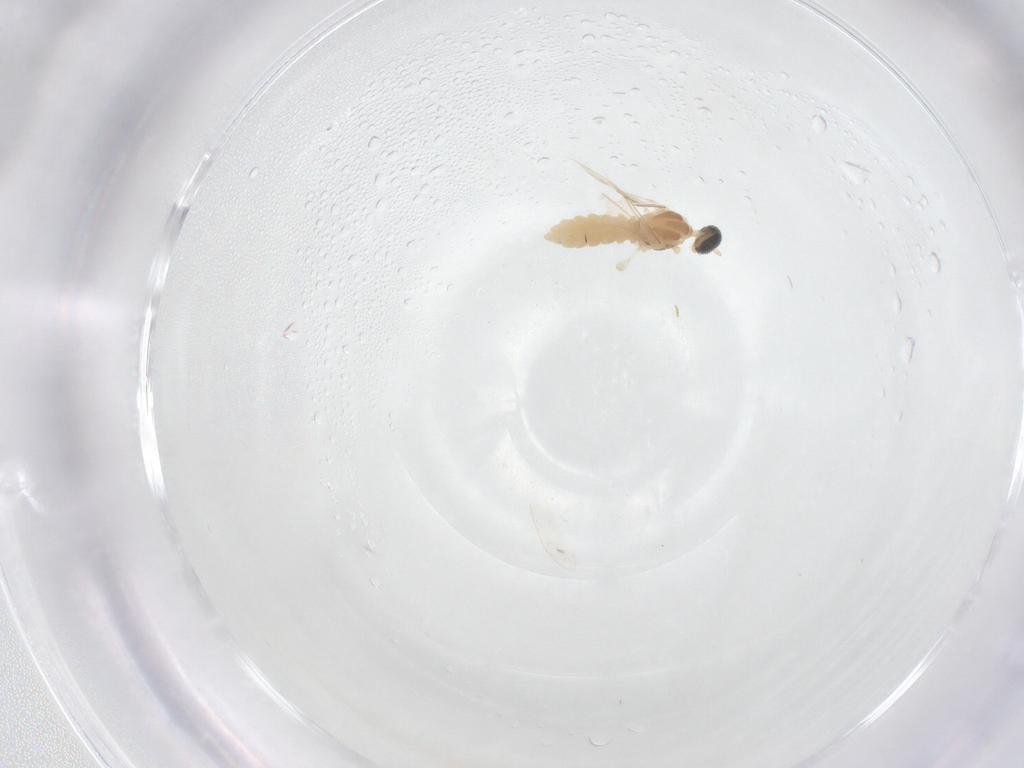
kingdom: Animalia
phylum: Arthropoda
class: Insecta
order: Diptera
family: Cecidomyiidae
